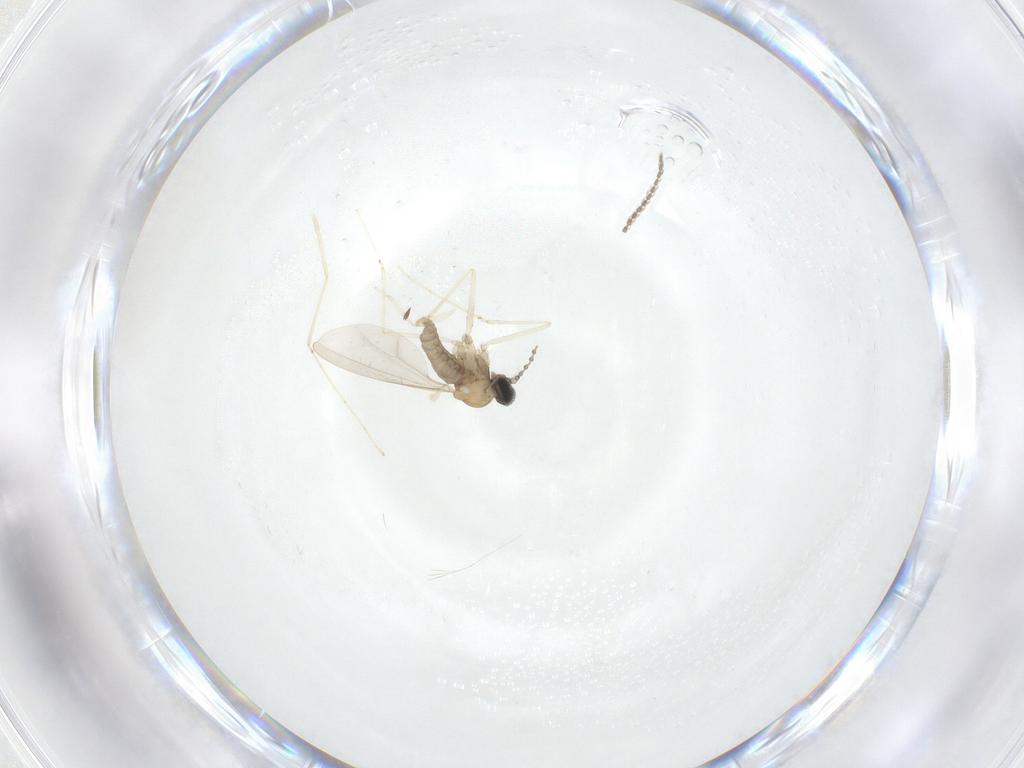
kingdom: Animalia
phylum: Arthropoda
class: Insecta
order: Diptera
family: Cecidomyiidae
